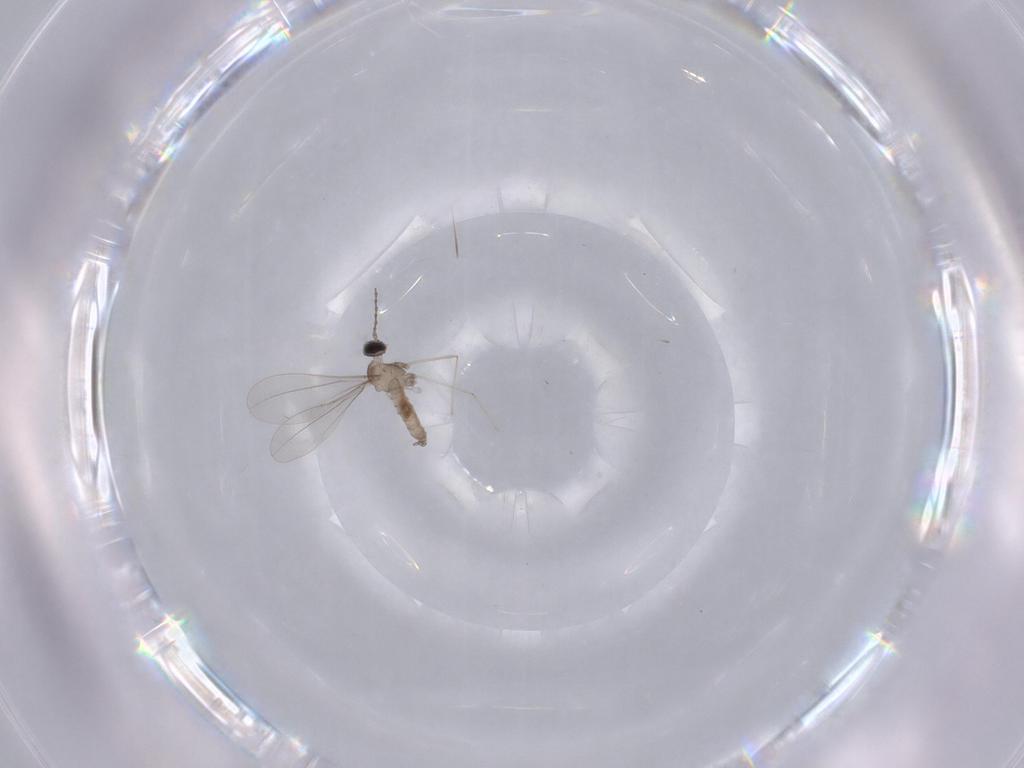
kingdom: Animalia
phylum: Arthropoda
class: Insecta
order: Diptera
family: Cecidomyiidae
